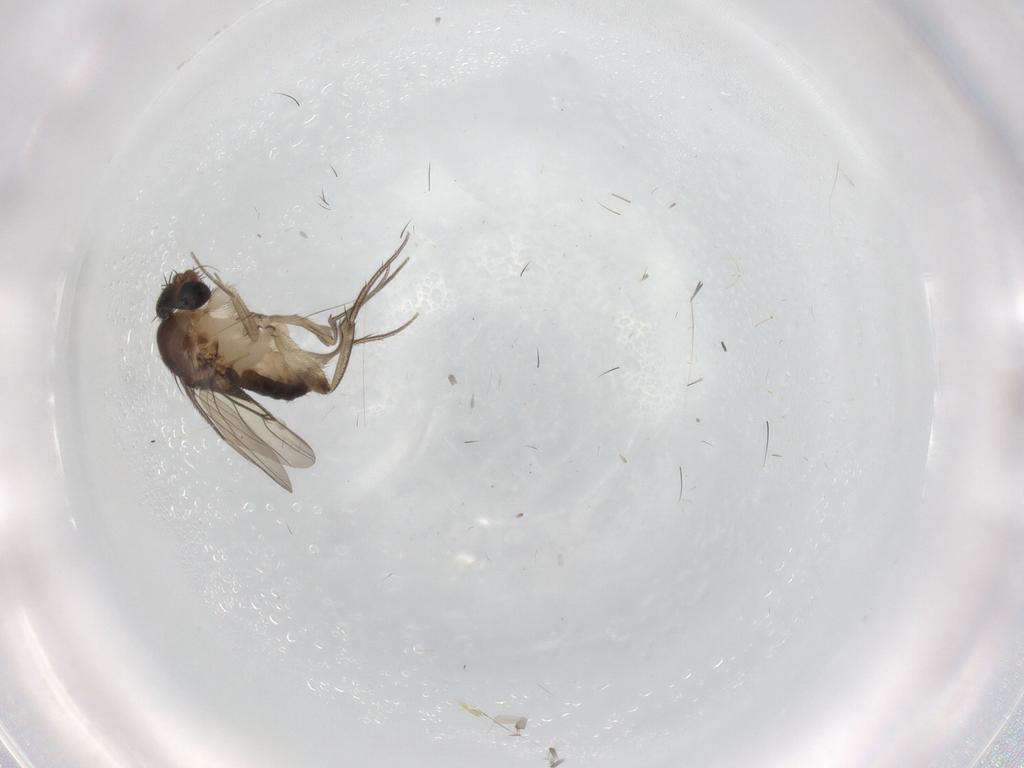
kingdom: Animalia
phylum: Arthropoda
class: Insecta
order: Diptera
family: Phoridae
